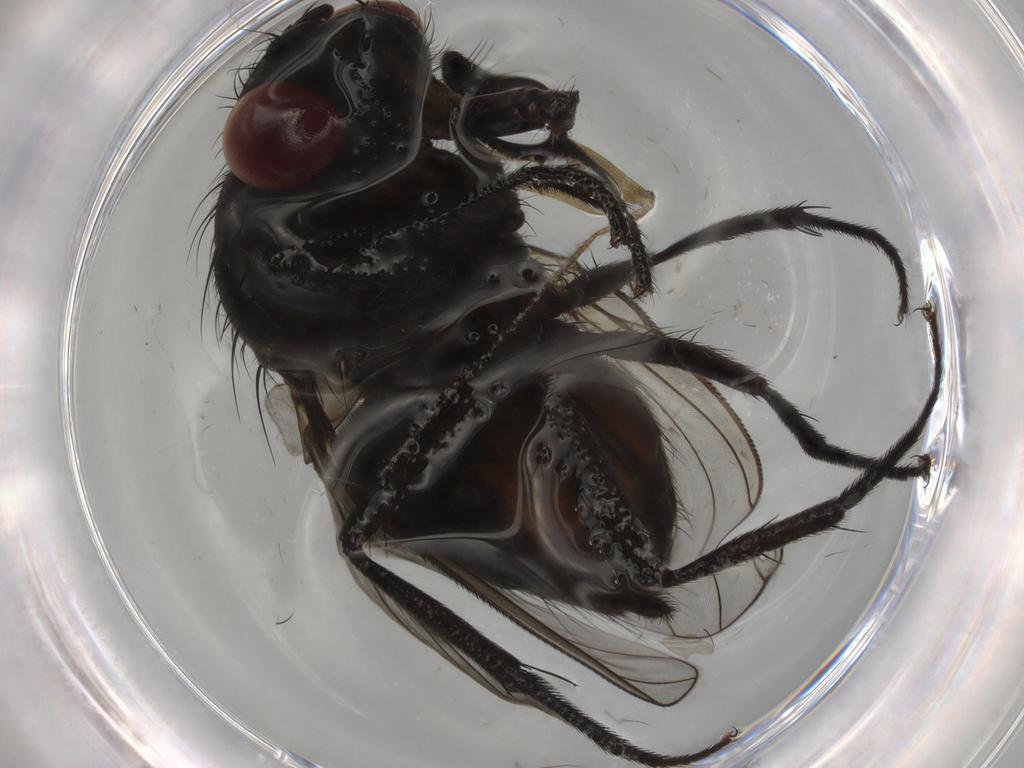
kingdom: Animalia
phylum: Arthropoda
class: Insecta
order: Diptera
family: Muscidae
